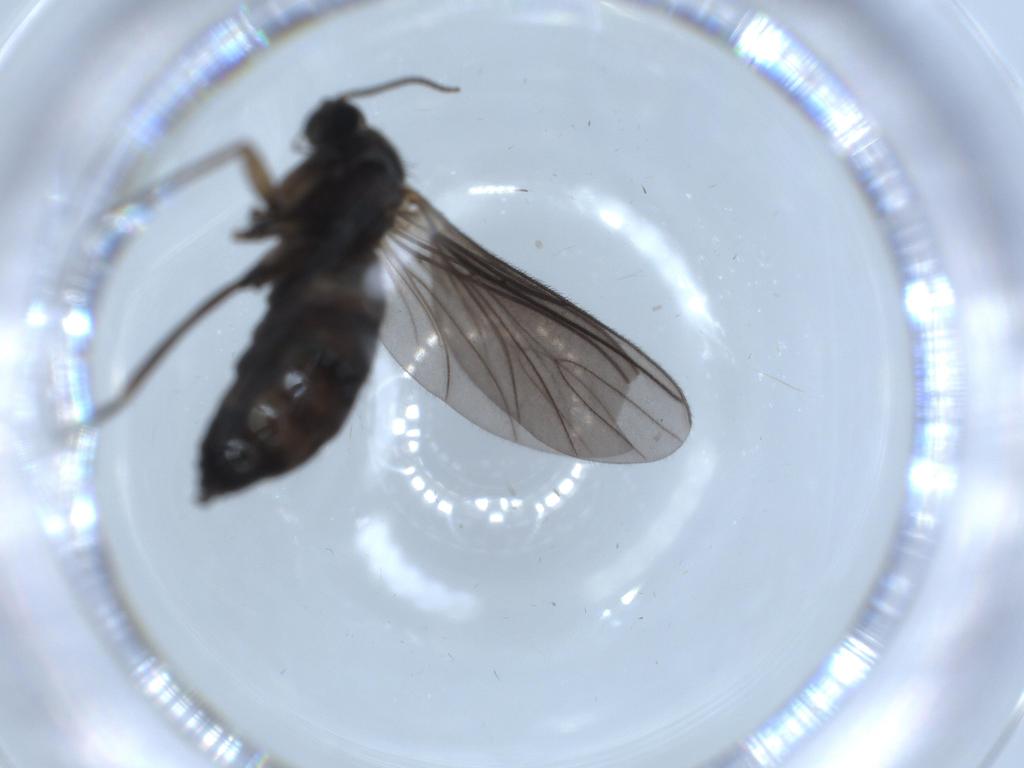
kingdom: Animalia
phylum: Arthropoda
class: Insecta
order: Diptera
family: Sciaridae
